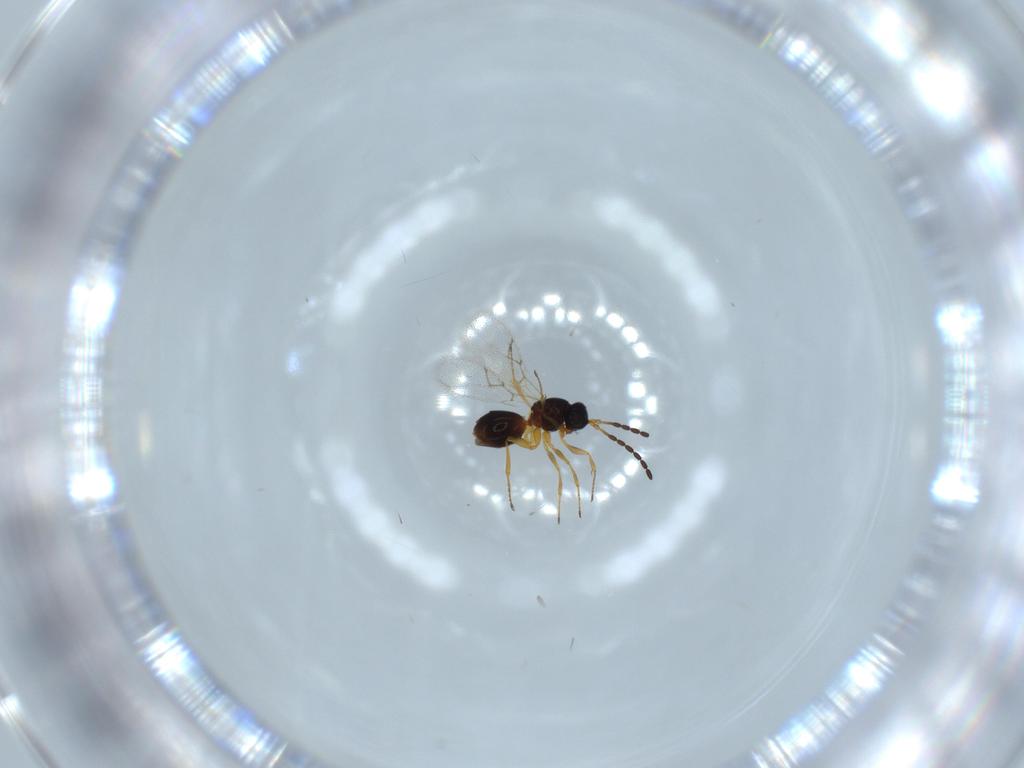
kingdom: Animalia
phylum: Arthropoda
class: Insecta
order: Hymenoptera
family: Figitidae
